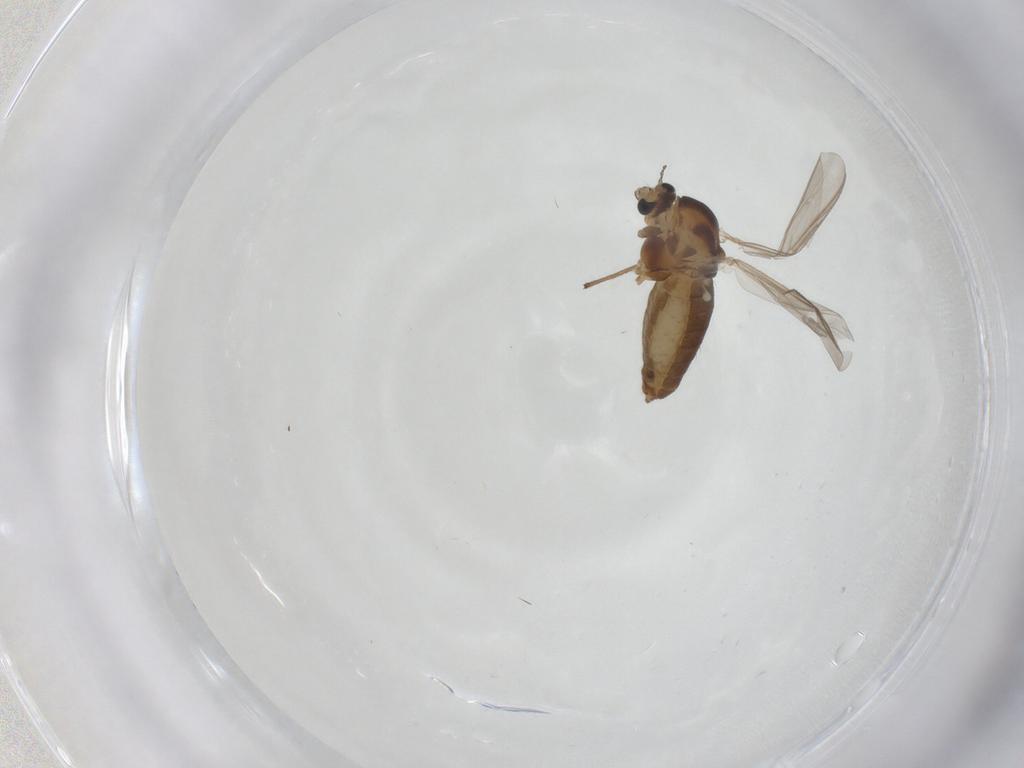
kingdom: Animalia
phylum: Arthropoda
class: Insecta
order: Diptera
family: Chironomidae
